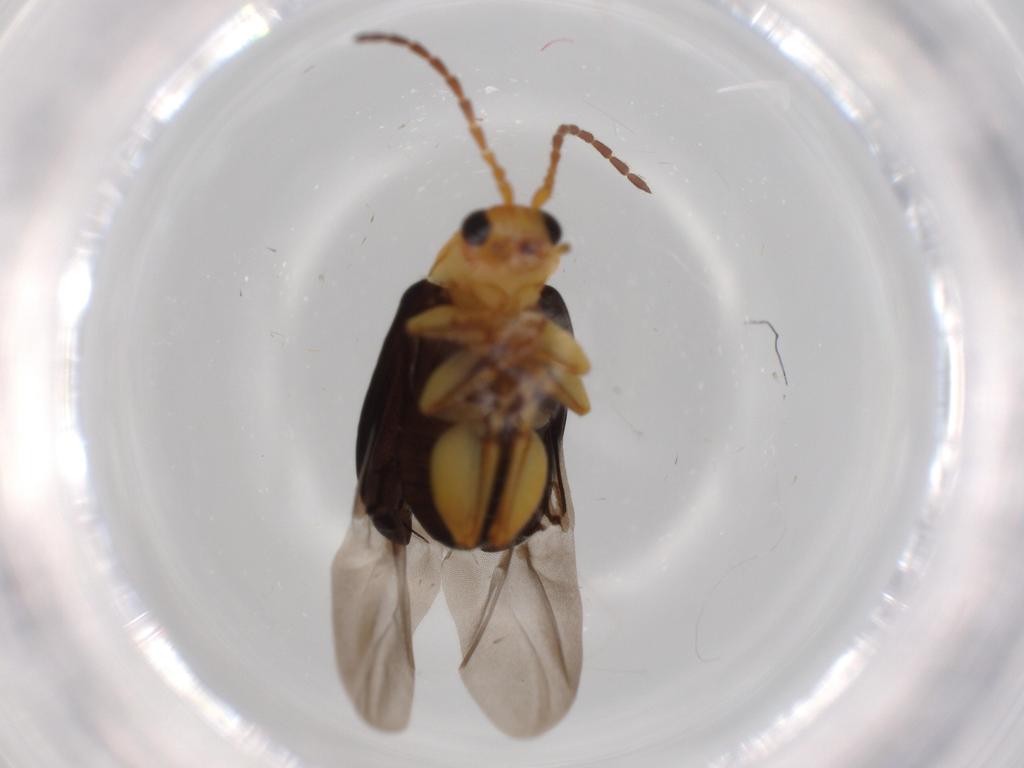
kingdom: Animalia
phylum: Arthropoda
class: Insecta
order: Coleoptera
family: Chrysomelidae
